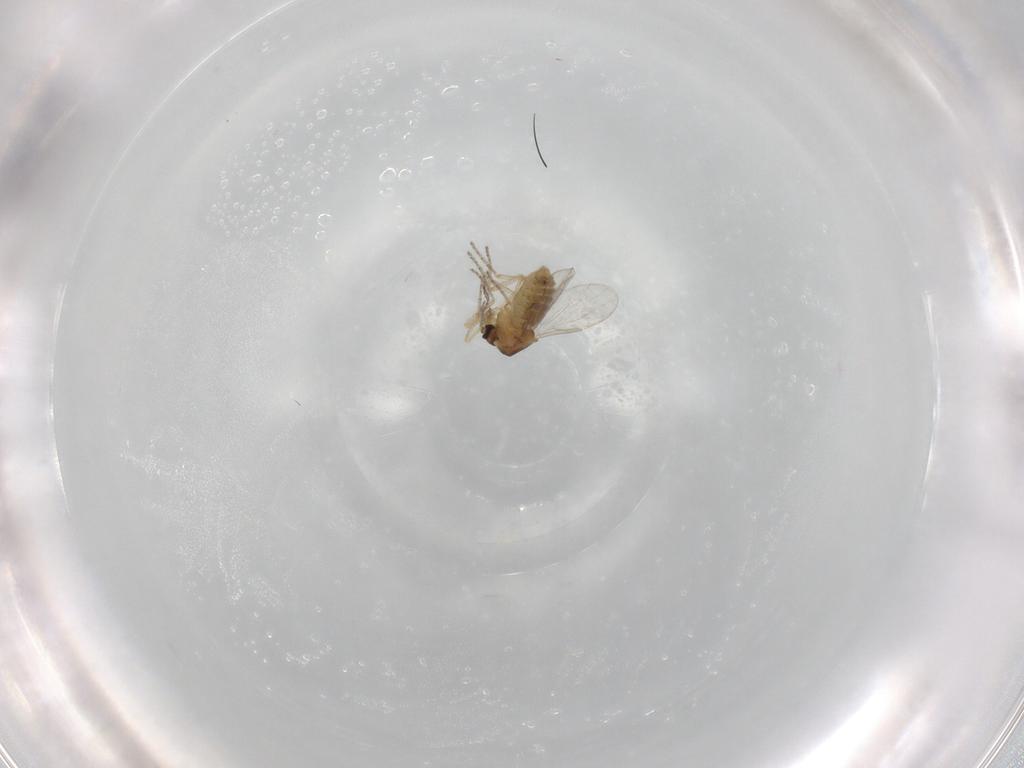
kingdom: Animalia
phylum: Arthropoda
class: Insecta
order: Diptera
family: Ceratopogonidae
